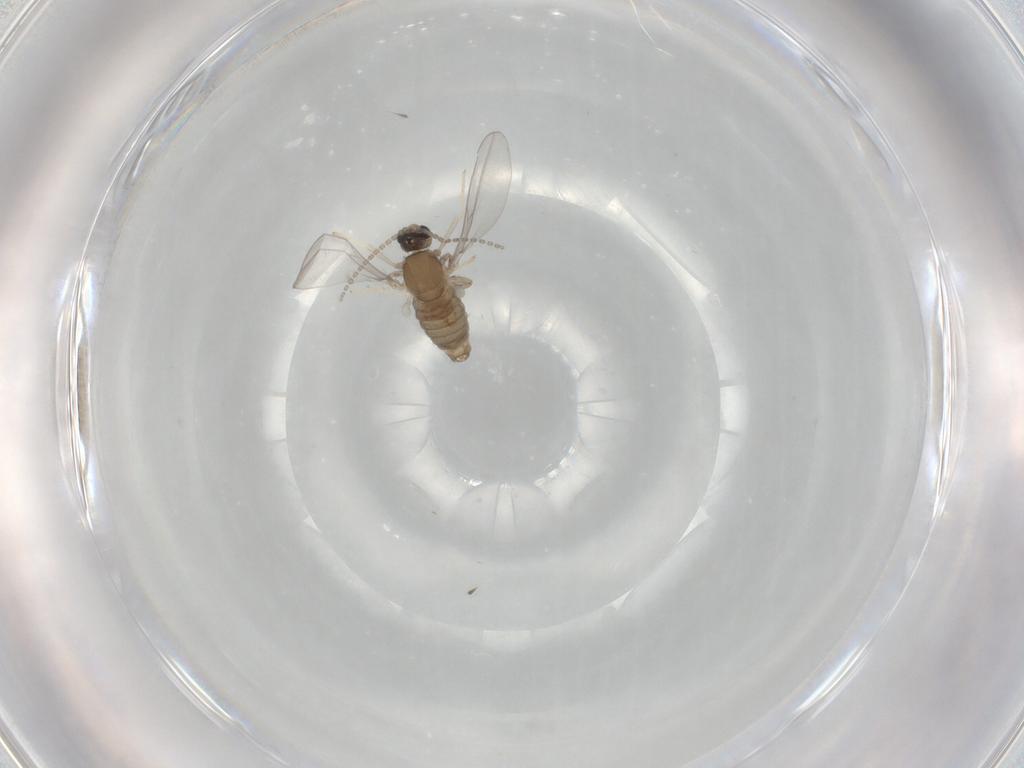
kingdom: Animalia
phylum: Arthropoda
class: Insecta
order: Diptera
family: Cecidomyiidae
